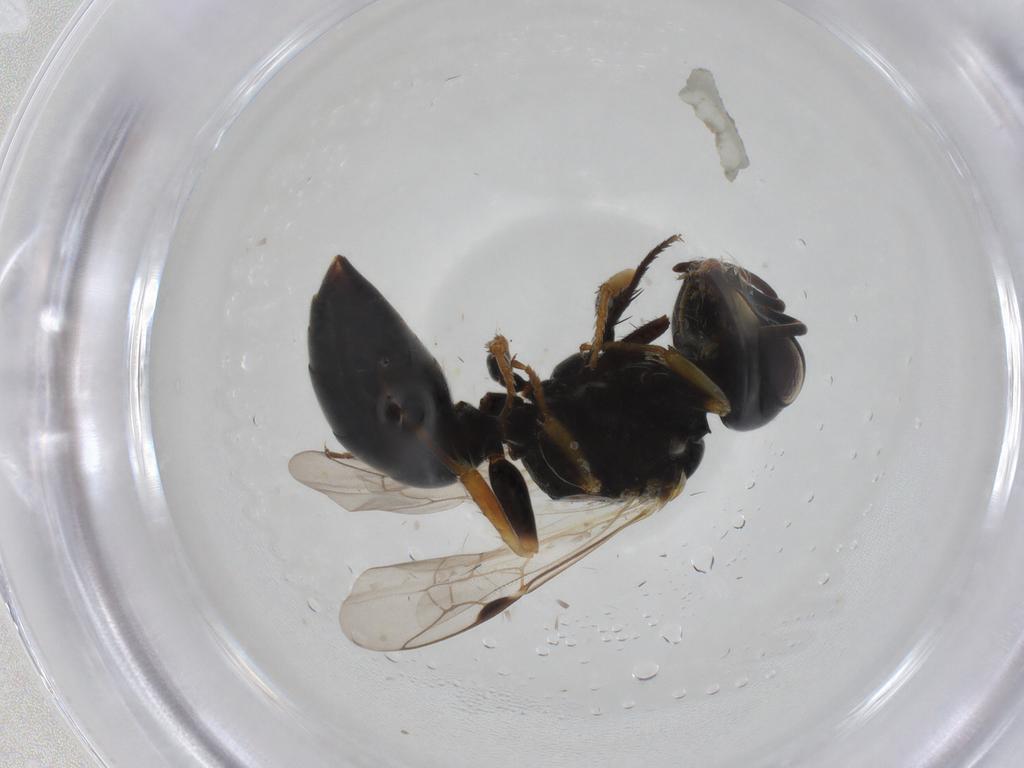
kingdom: Animalia
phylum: Arthropoda
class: Insecta
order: Hymenoptera
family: Pemphredonidae
